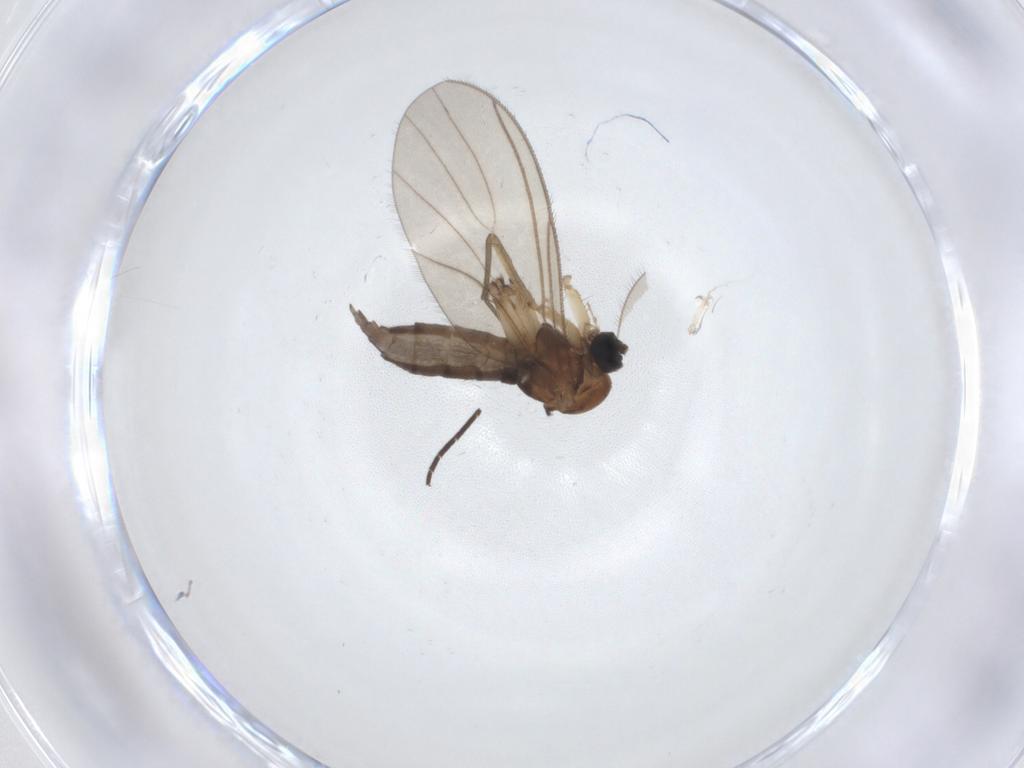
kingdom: Animalia
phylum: Arthropoda
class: Insecta
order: Diptera
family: Sciaridae
